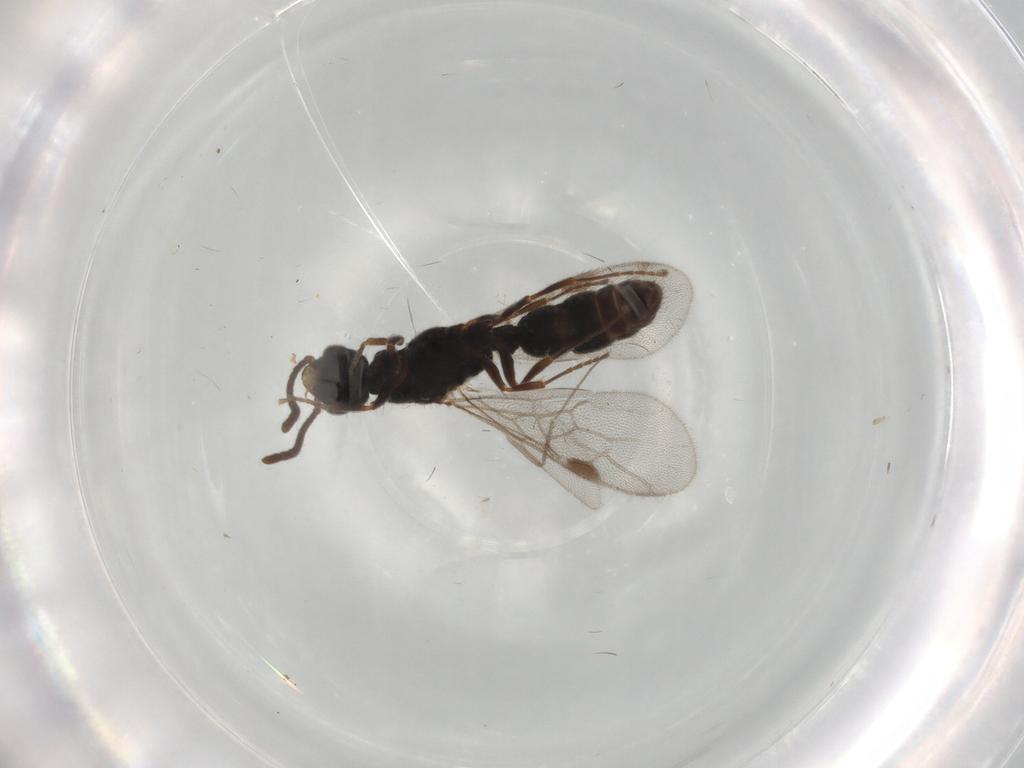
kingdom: Animalia
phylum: Arthropoda
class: Insecta
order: Hymenoptera
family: Formicidae
